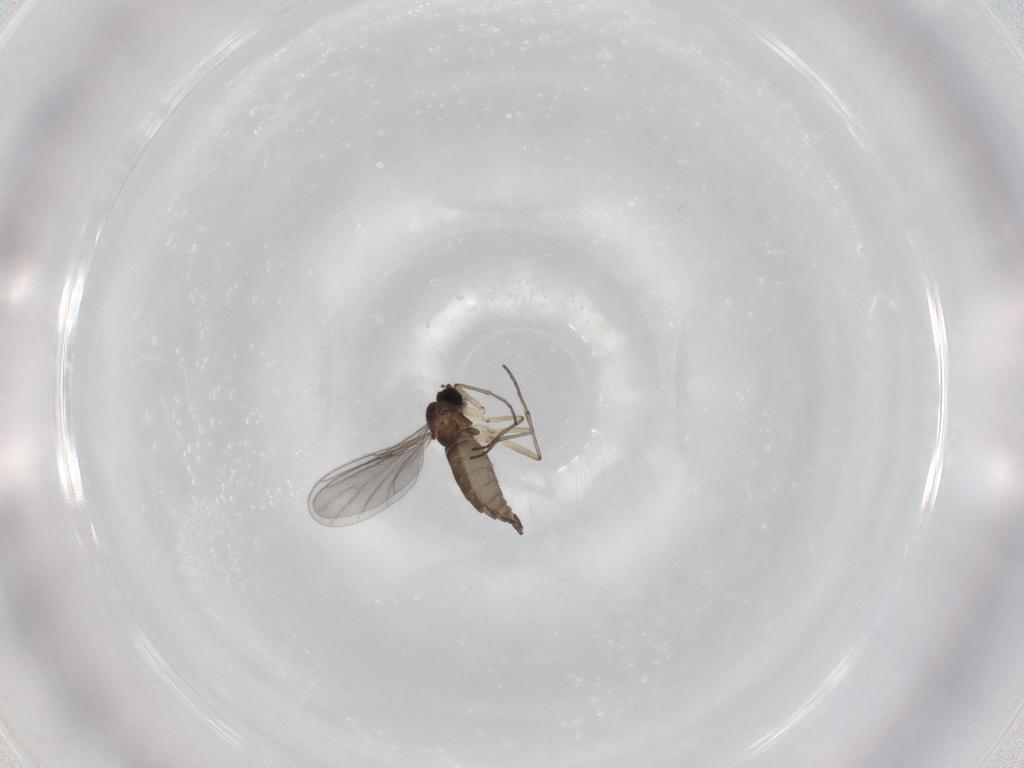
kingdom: Animalia
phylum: Arthropoda
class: Insecta
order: Diptera
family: Sciaridae
